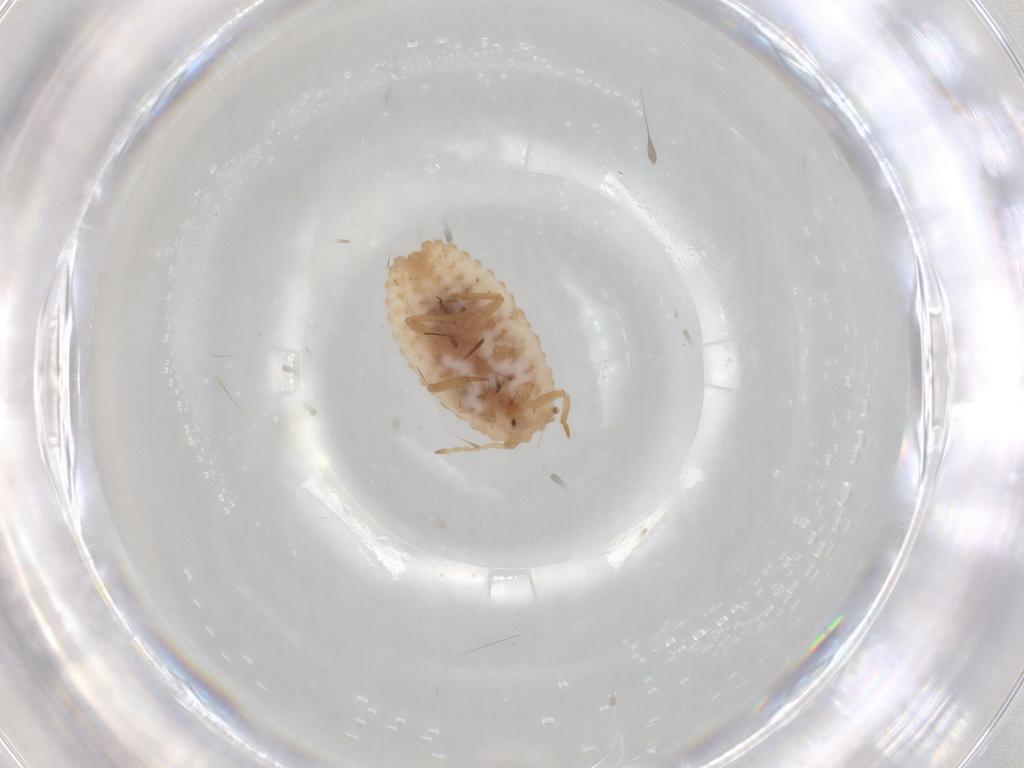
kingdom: Animalia
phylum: Arthropoda
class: Insecta
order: Hemiptera
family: Coccoidea_incertae_sedis
